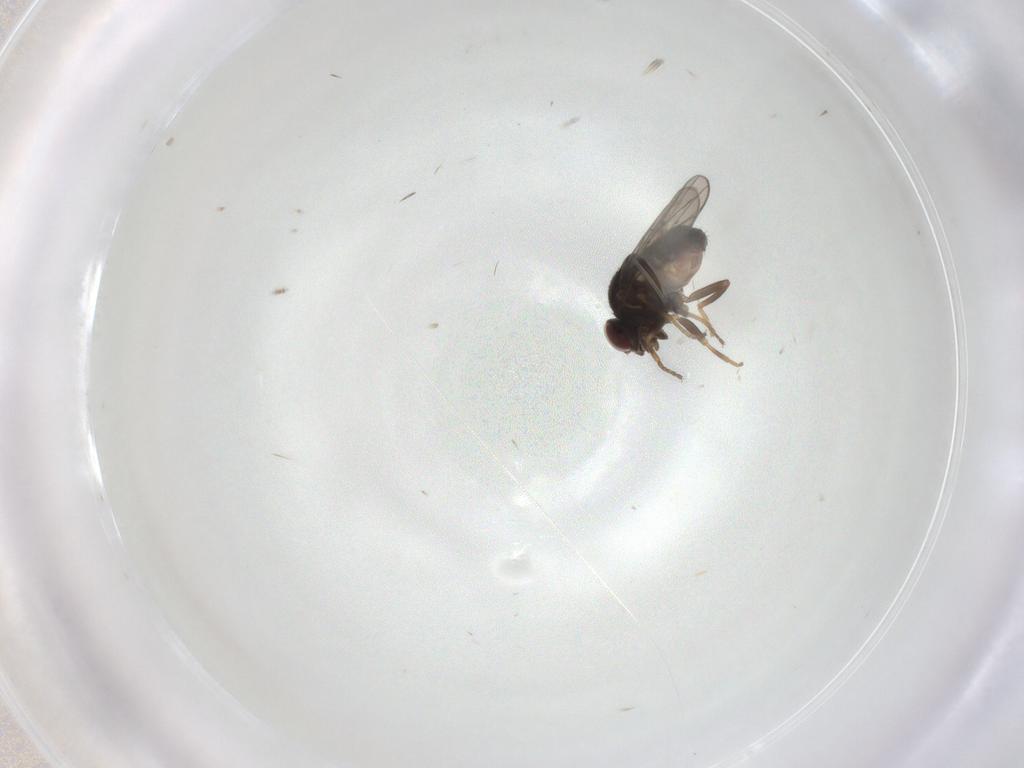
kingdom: Animalia
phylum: Arthropoda
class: Insecta
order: Diptera
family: Chloropidae
